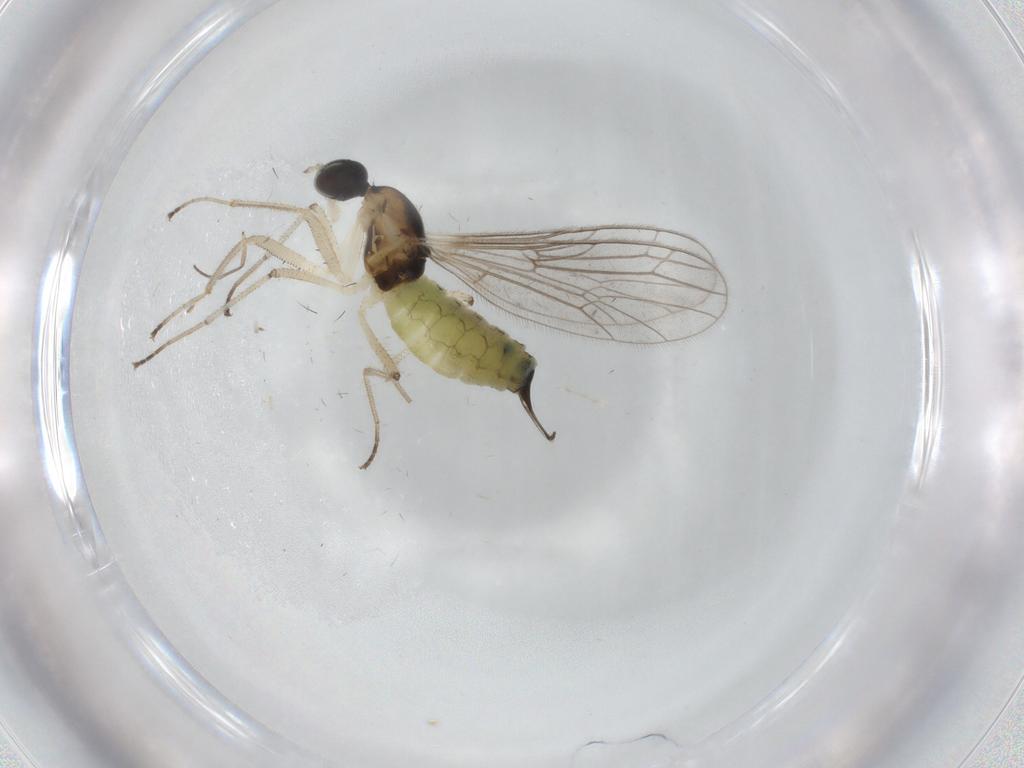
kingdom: Animalia
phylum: Arthropoda
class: Insecta
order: Diptera
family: Empididae
